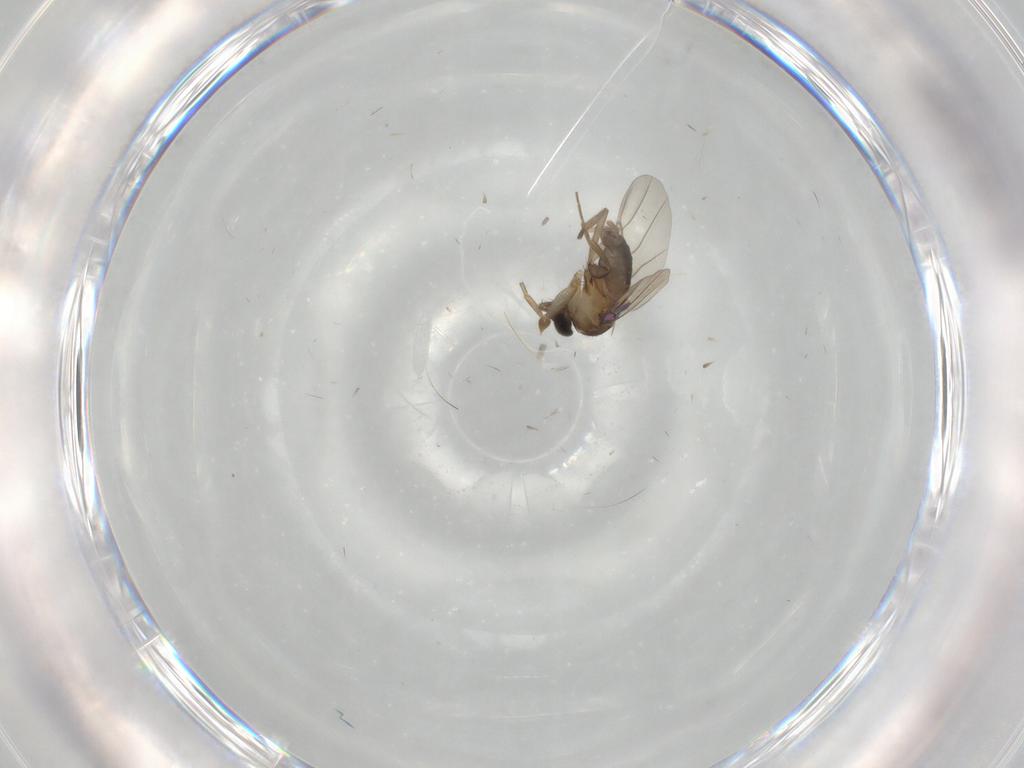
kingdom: Animalia
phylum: Arthropoda
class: Insecta
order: Diptera
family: Phoridae
